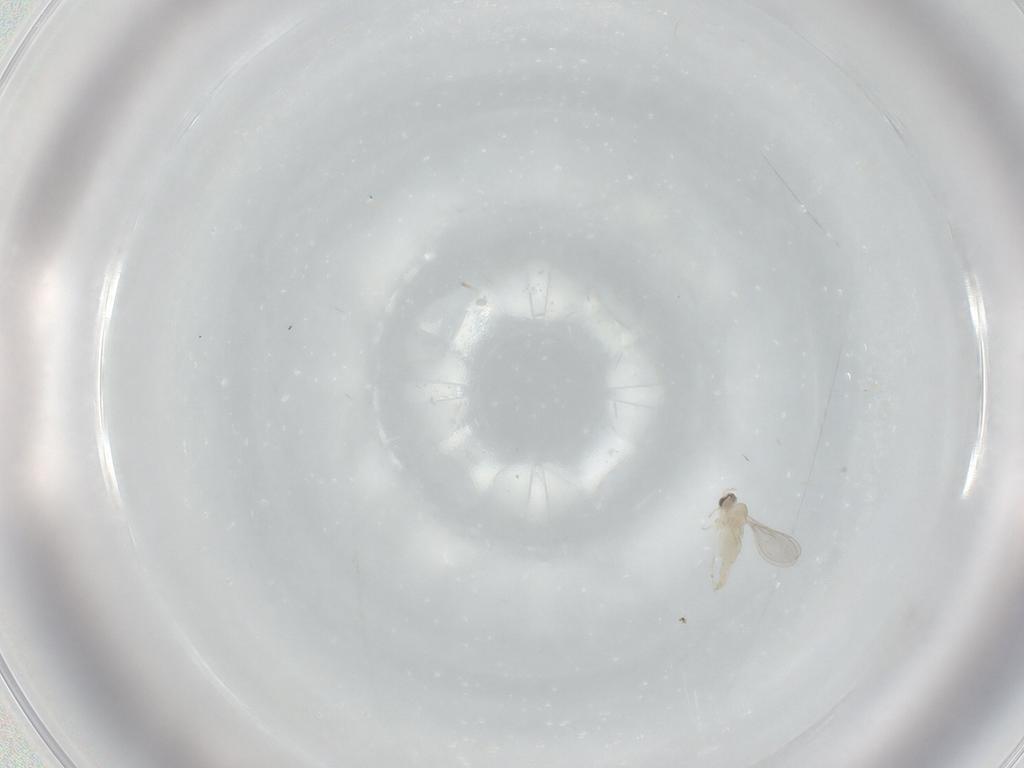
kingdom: Animalia
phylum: Arthropoda
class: Insecta
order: Diptera
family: Cecidomyiidae
